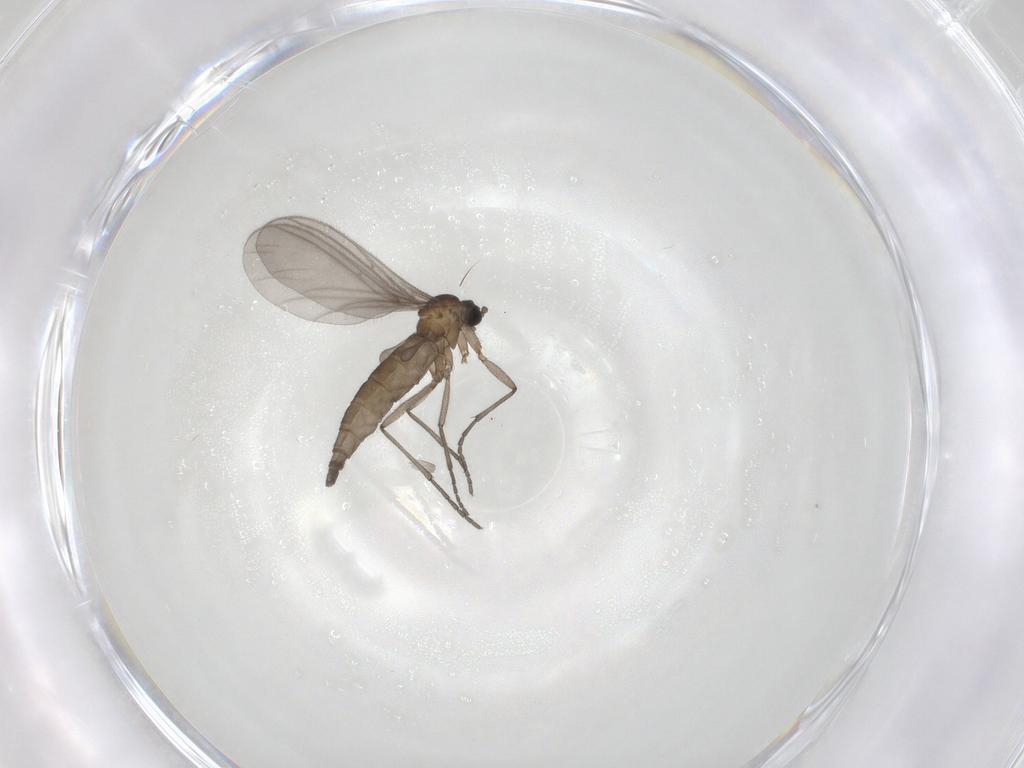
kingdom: Animalia
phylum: Arthropoda
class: Insecta
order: Diptera
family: Sciaridae
